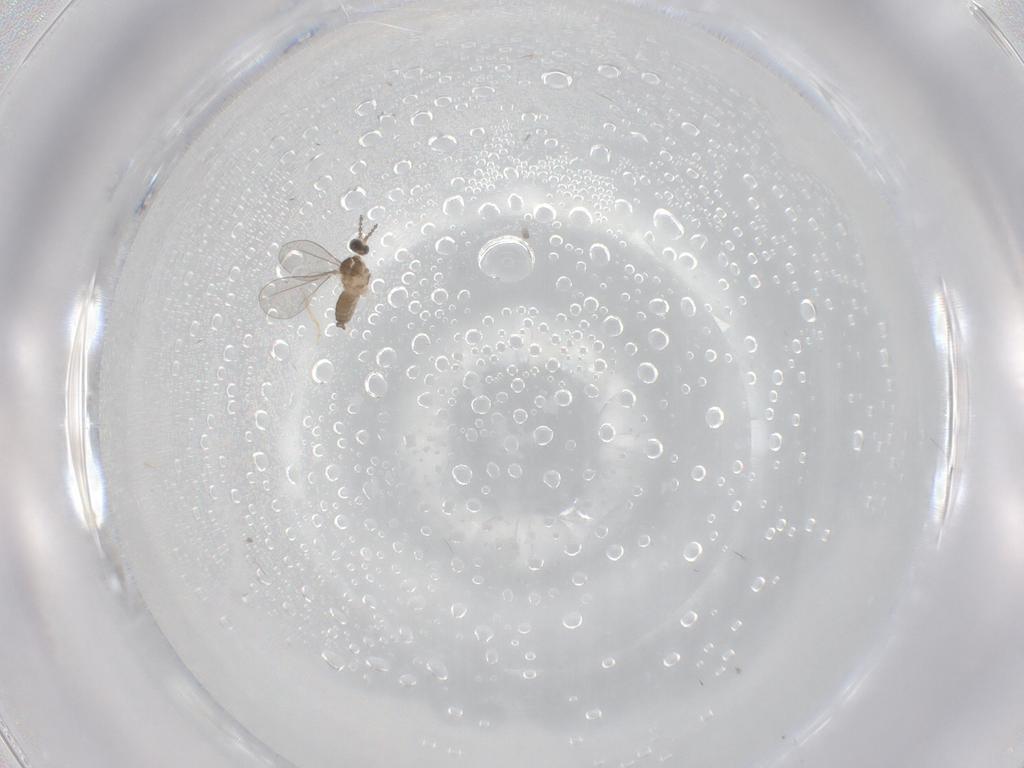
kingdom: Animalia
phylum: Arthropoda
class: Insecta
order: Diptera
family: Cecidomyiidae
